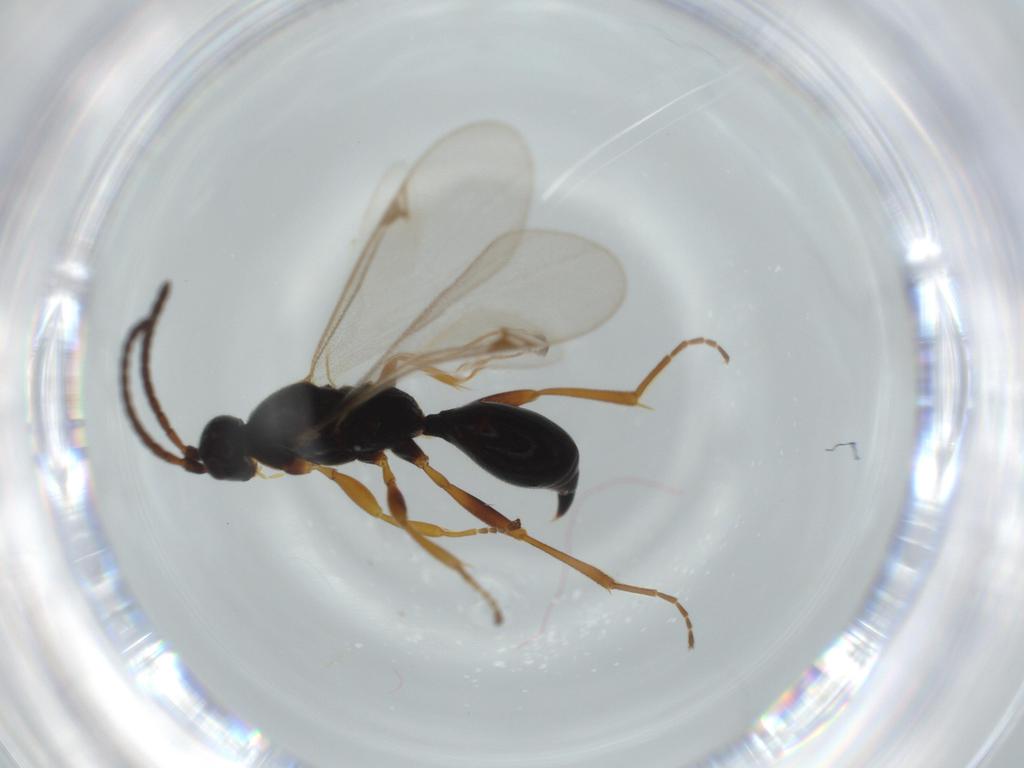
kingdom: Animalia
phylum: Arthropoda
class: Insecta
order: Hymenoptera
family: Proctotrupidae
